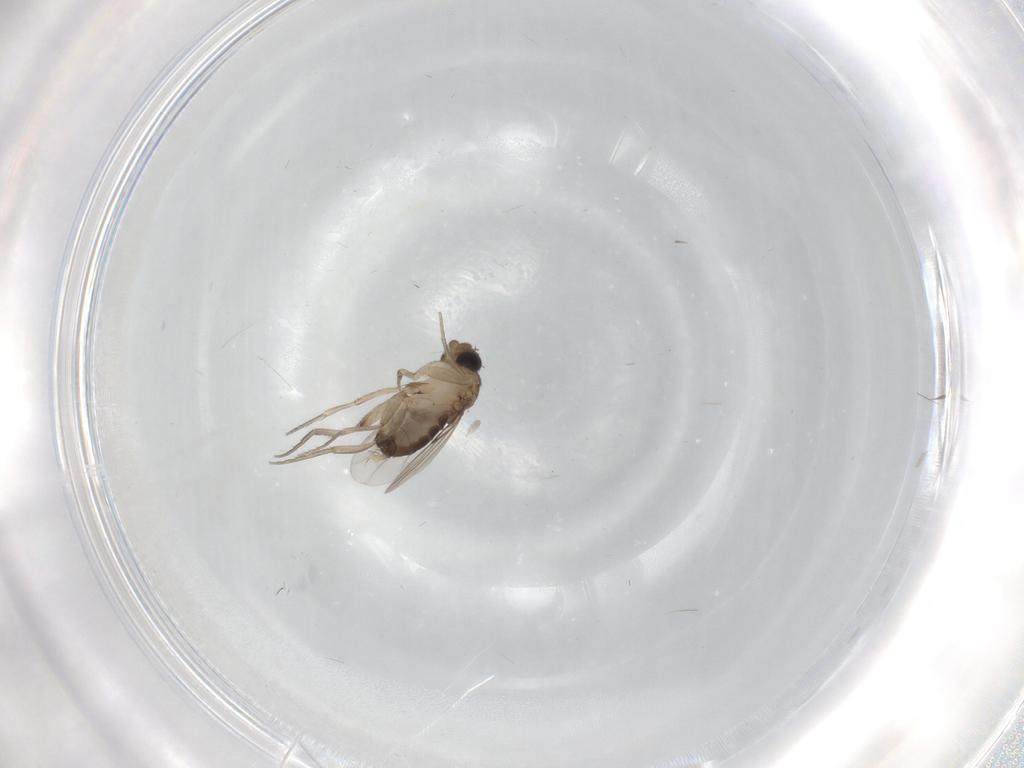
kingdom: Animalia
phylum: Arthropoda
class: Insecta
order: Diptera
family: Phoridae
